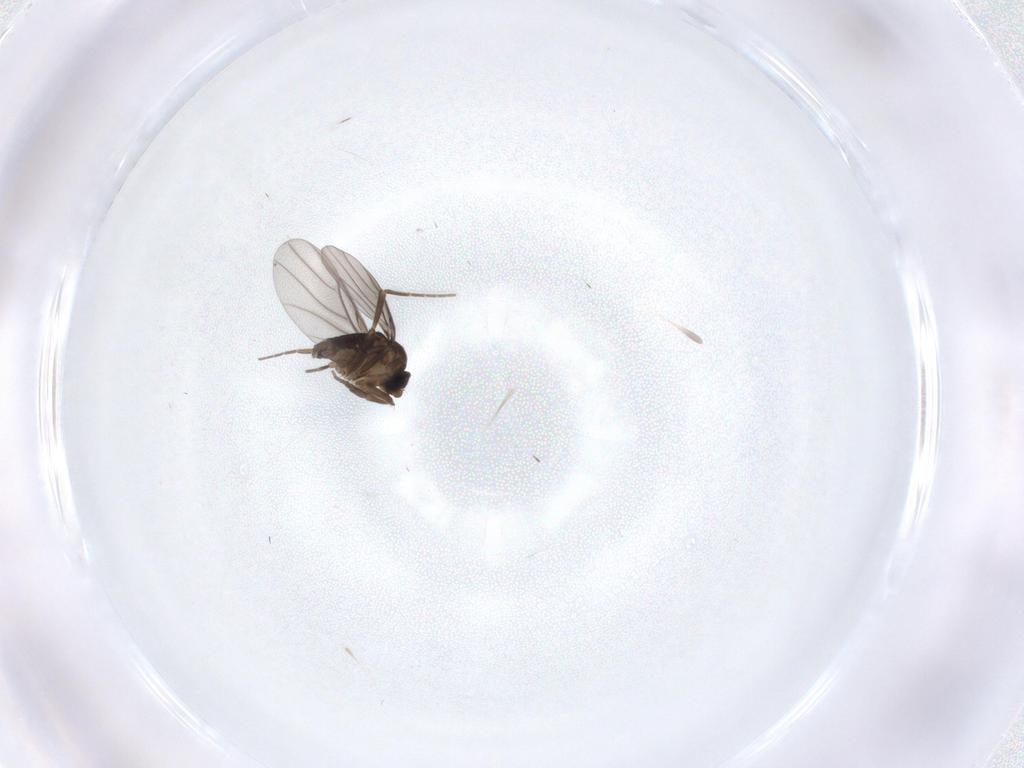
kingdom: Animalia
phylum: Arthropoda
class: Insecta
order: Diptera
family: Phoridae
